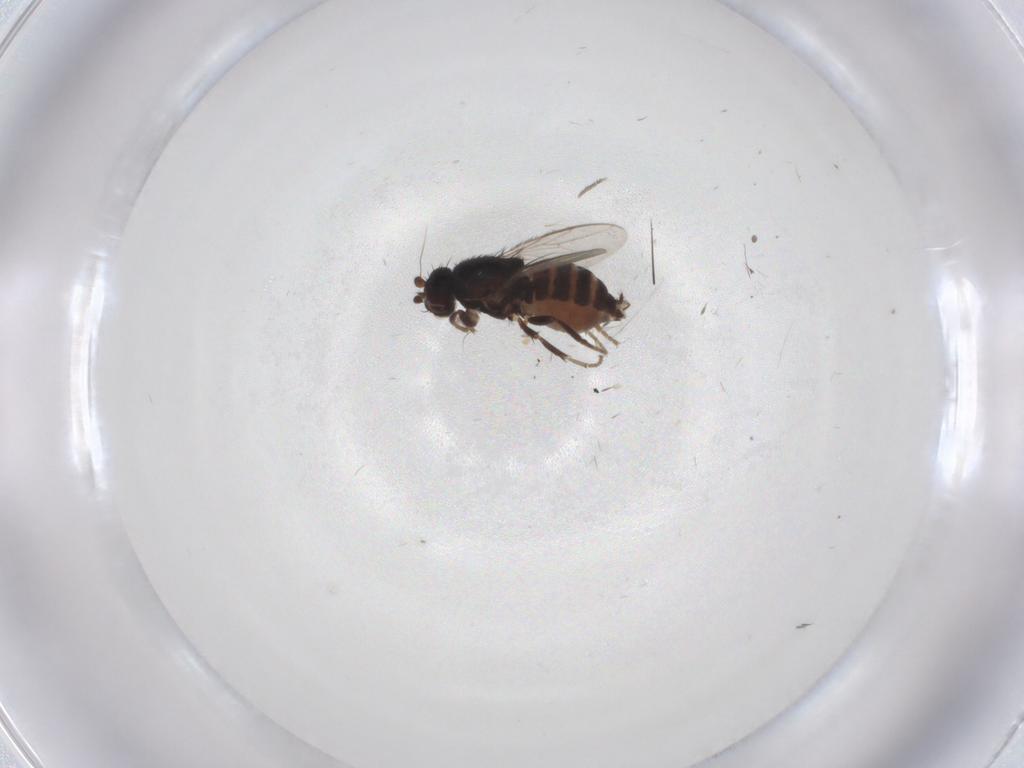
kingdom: Animalia
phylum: Arthropoda
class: Insecta
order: Diptera
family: Sphaeroceridae
